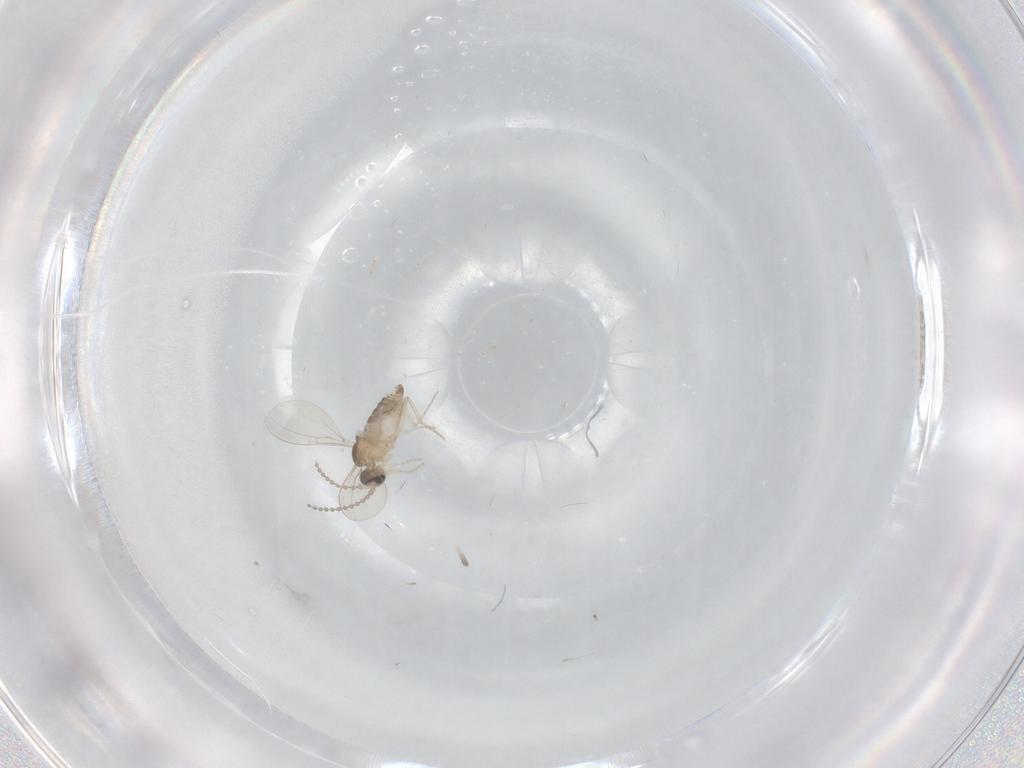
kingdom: Animalia
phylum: Arthropoda
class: Insecta
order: Diptera
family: Cecidomyiidae
